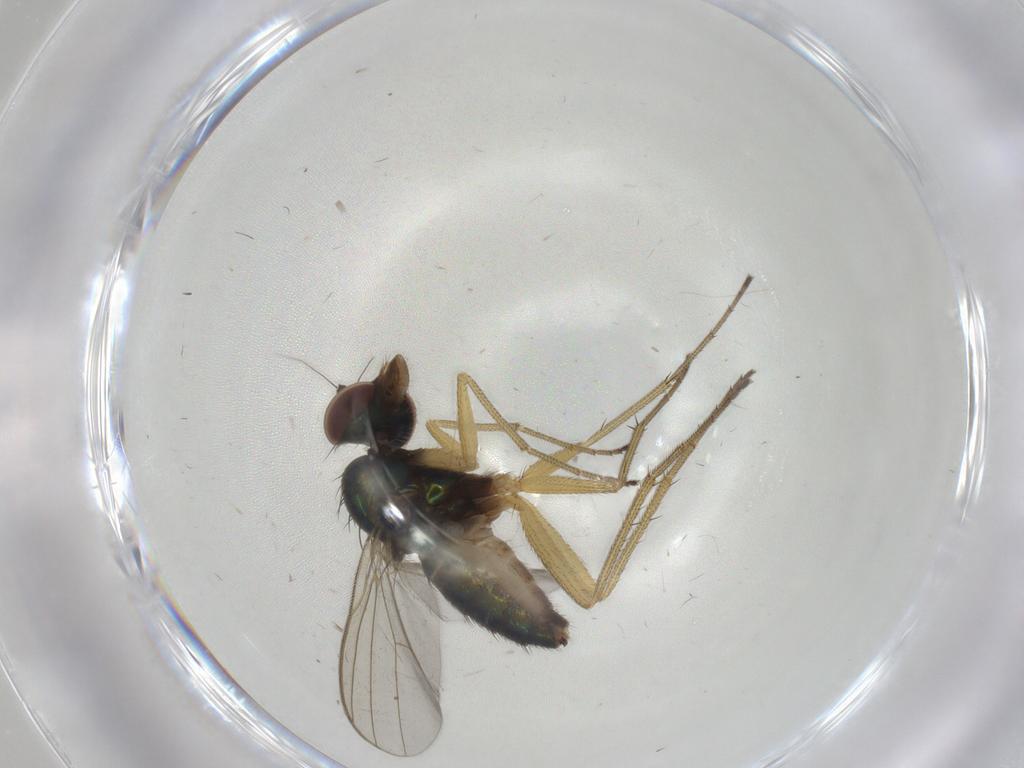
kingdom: Animalia
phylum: Arthropoda
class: Insecta
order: Diptera
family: Dolichopodidae
